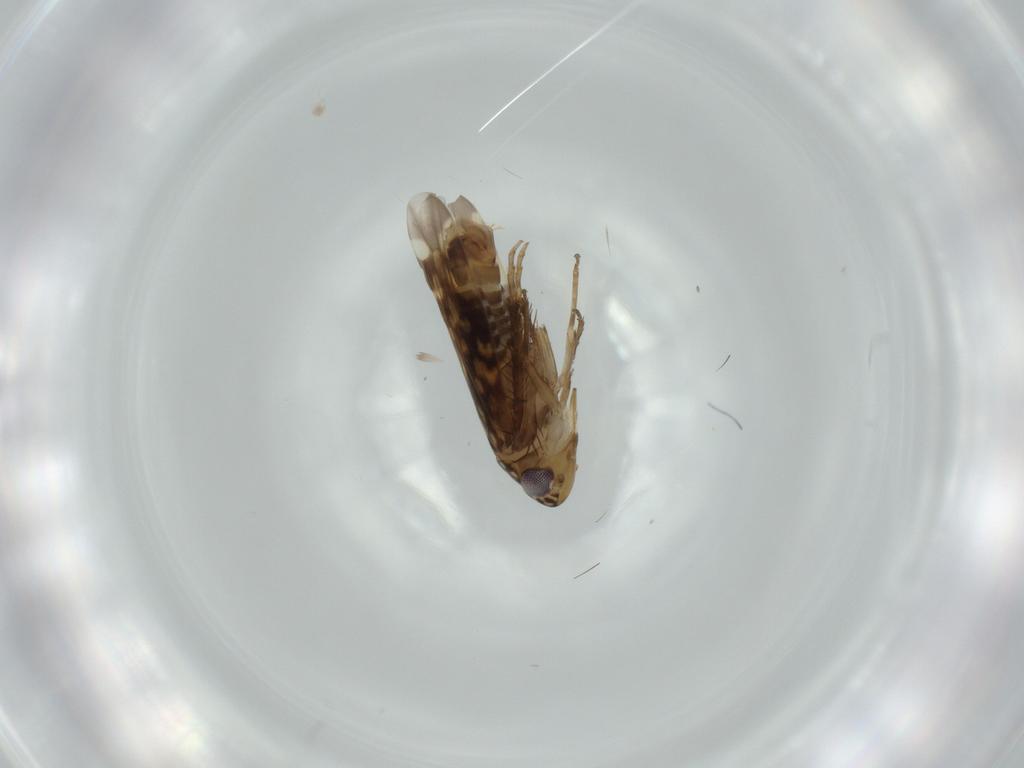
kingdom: Animalia
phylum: Arthropoda
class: Insecta
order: Hemiptera
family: Cicadellidae
